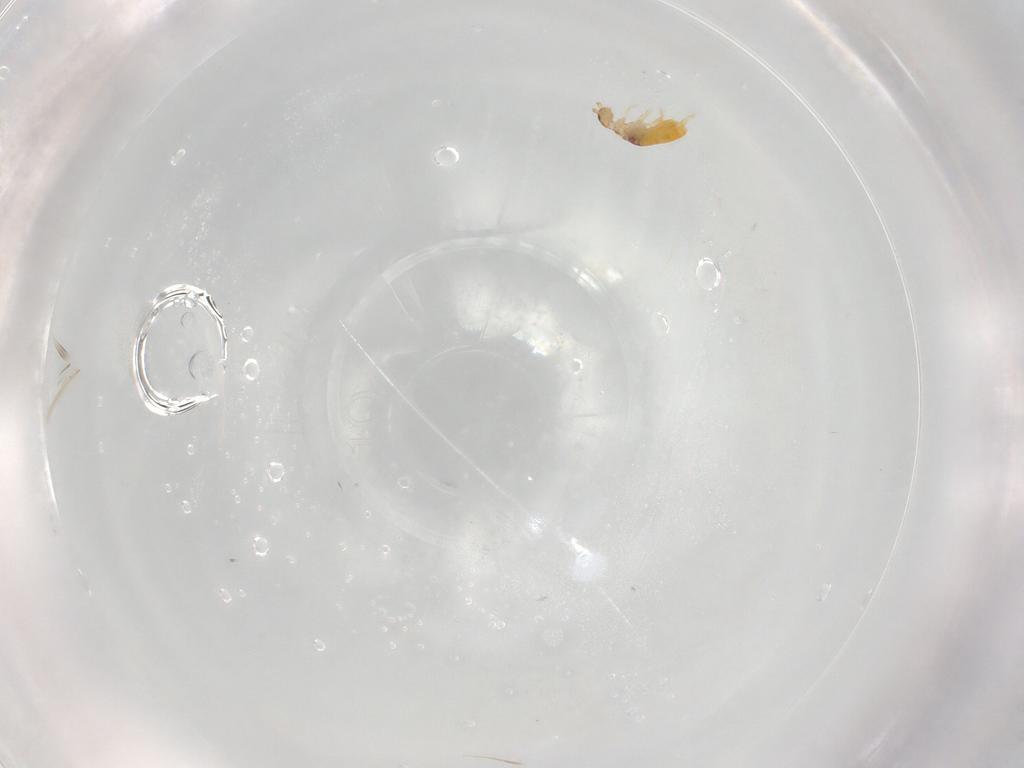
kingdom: Animalia
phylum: Arthropoda
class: Collembola
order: Entomobryomorpha
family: Entomobryidae
